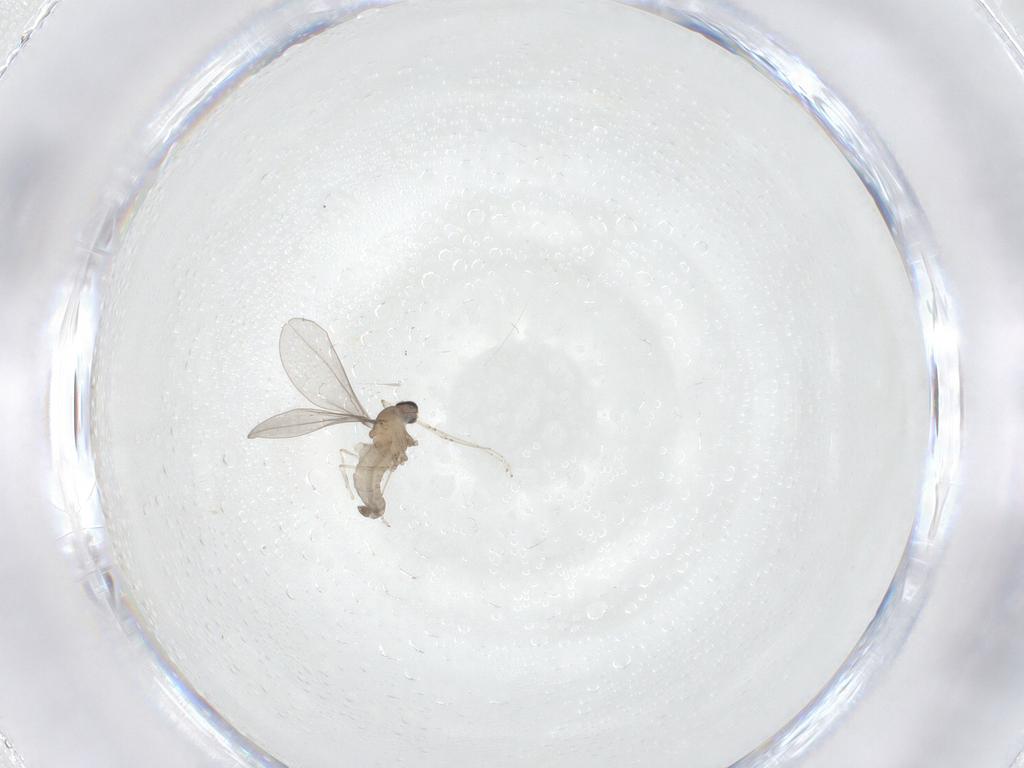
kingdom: Animalia
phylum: Arthropoda
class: Insecta
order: Diptera
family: Cecidomyiidae
